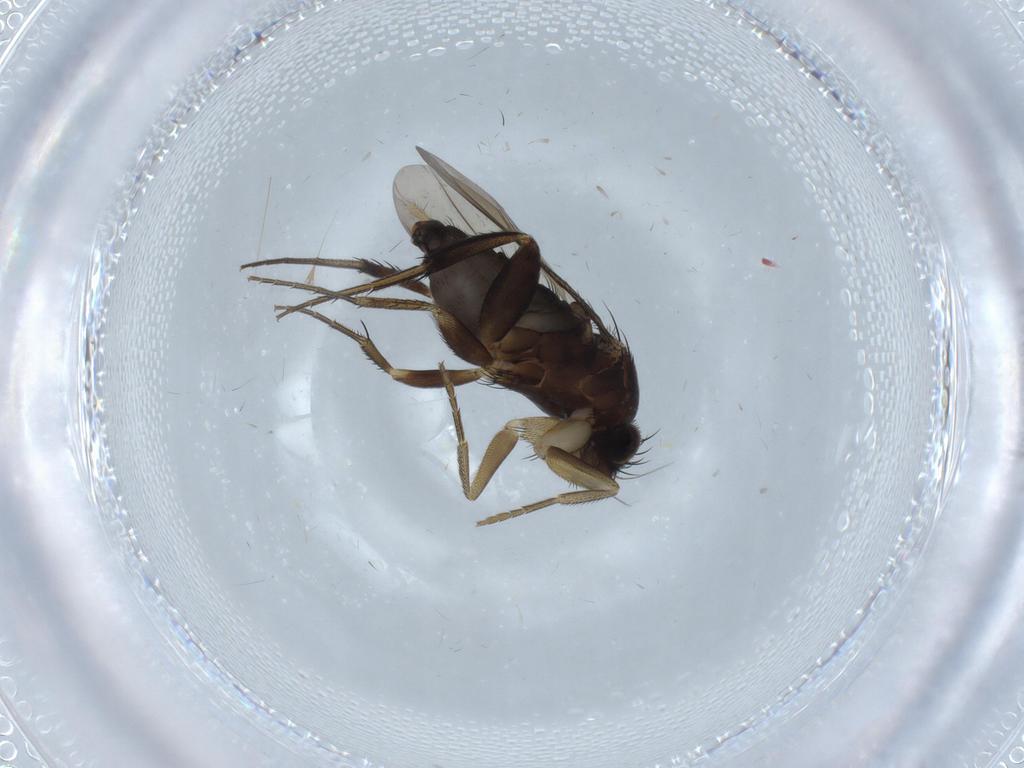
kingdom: Animalia
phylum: Arthropoda
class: Insecta
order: Diptera
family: Phoridae
